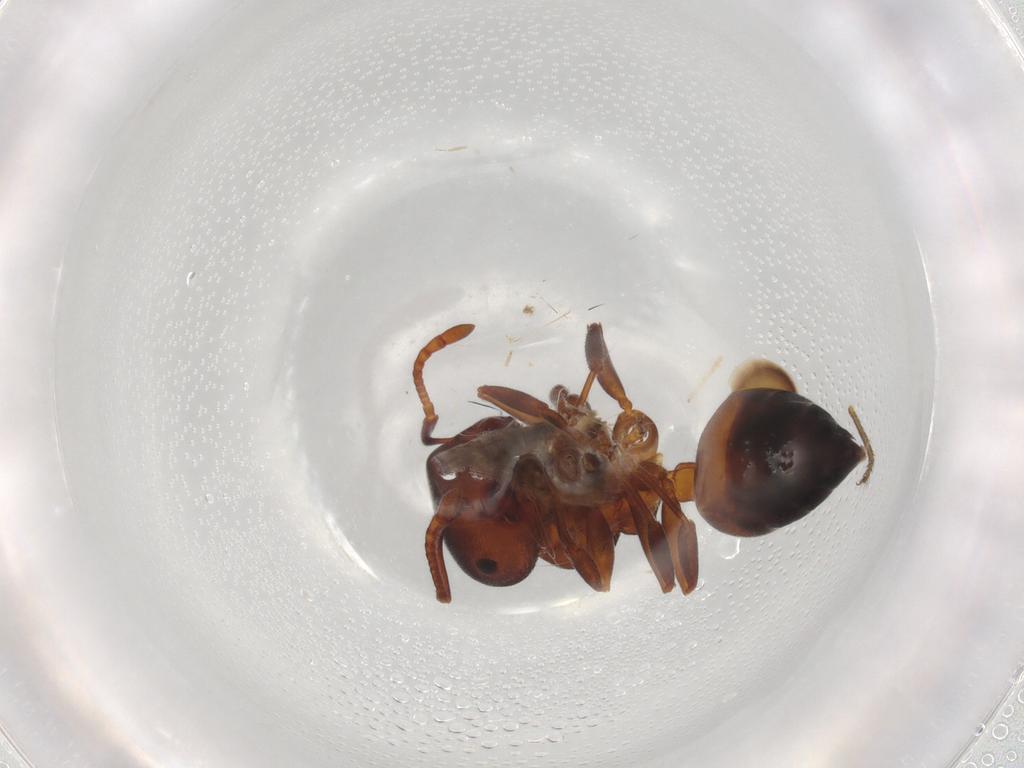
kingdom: Animalia
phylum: Arthropoda
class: Insecta
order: Hymenoptera
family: Formicidae
